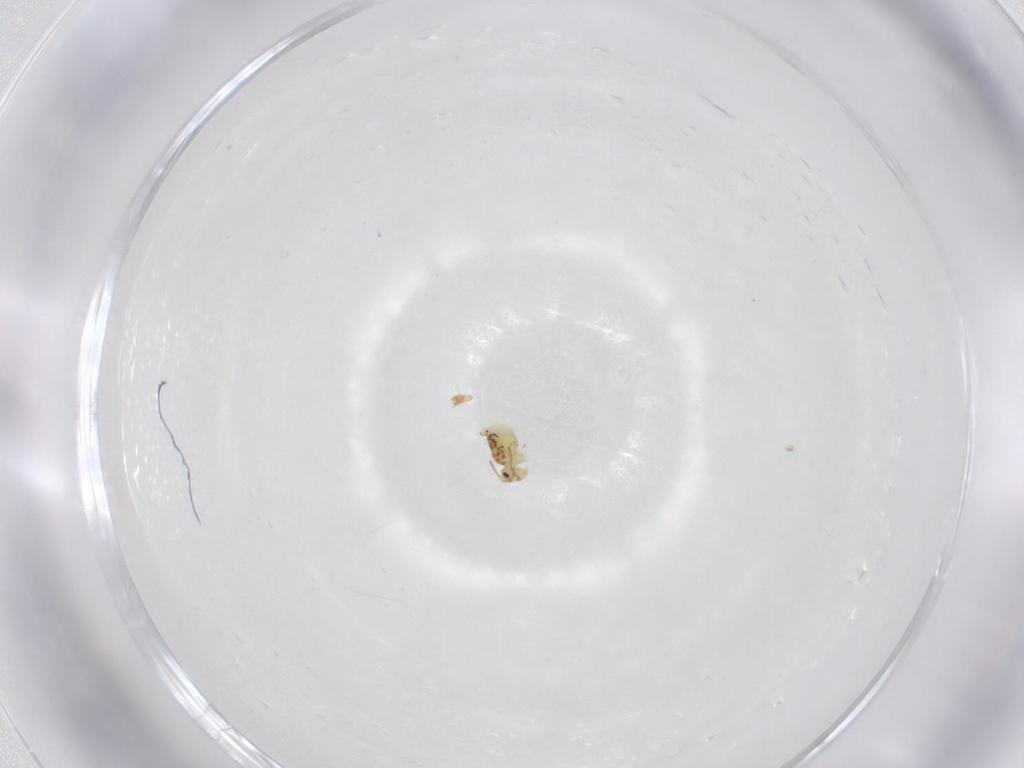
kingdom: Animalia
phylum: Arthropoda
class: Collembola
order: Symphypleona
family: Bourletiellidae
